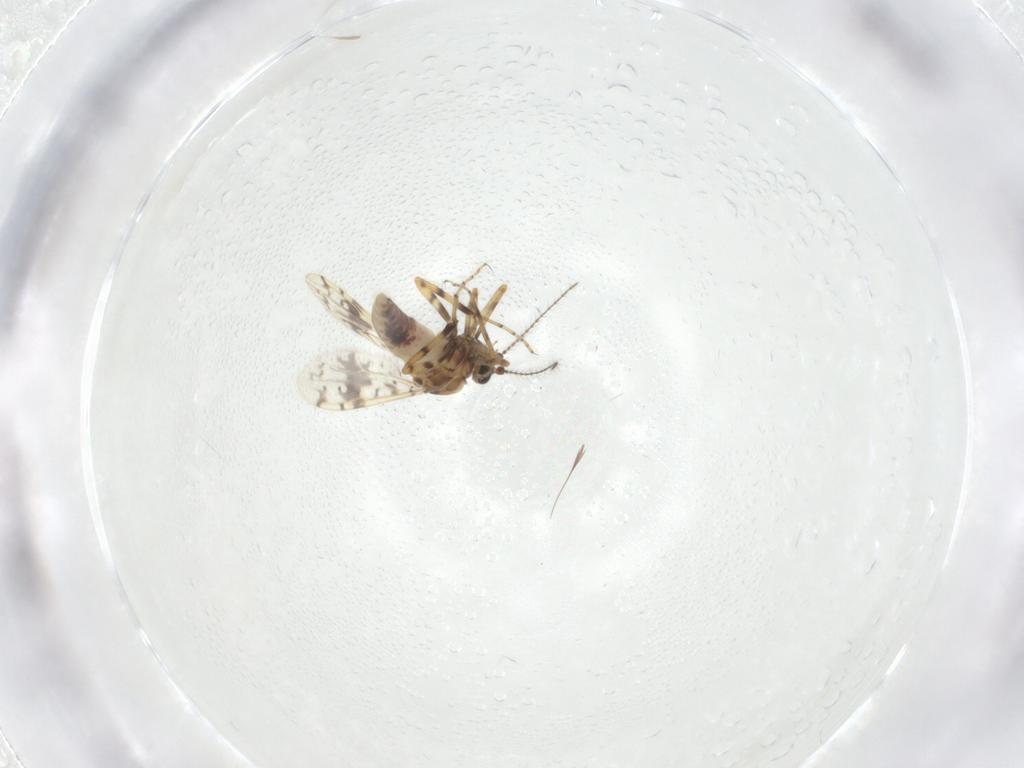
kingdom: Animalia
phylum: Arthropoda
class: Insecta
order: Diptera
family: Ceratopogonidae
